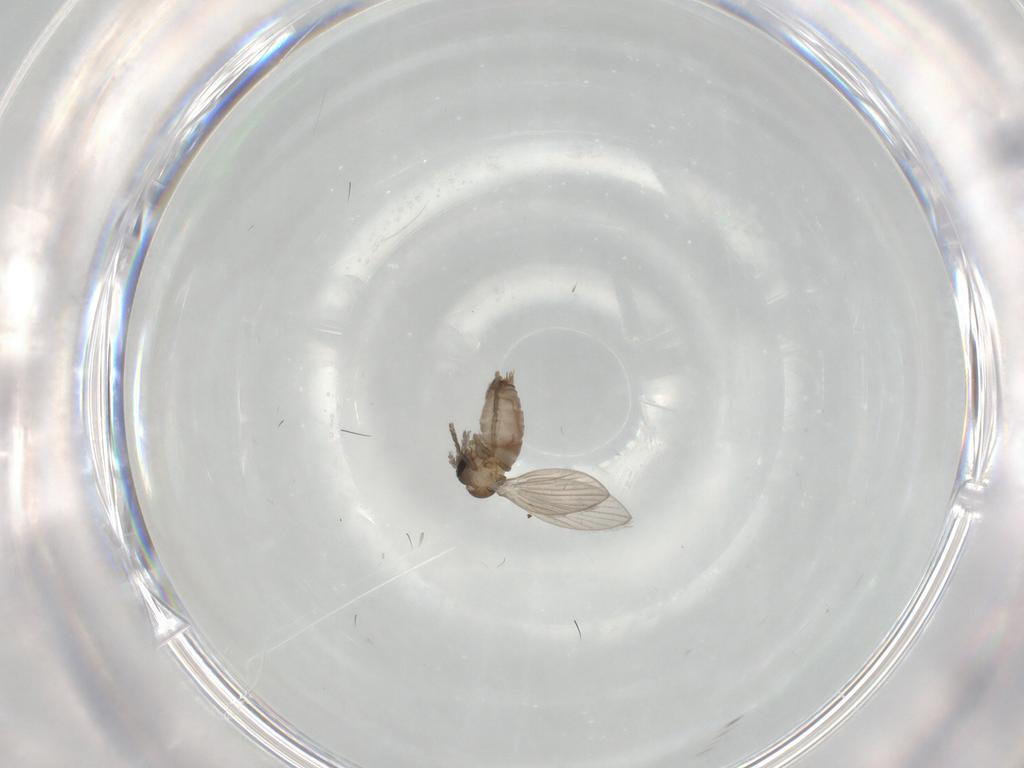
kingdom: Animalia
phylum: Arthropoda
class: Insecta
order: Diptera
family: Psychodidae
